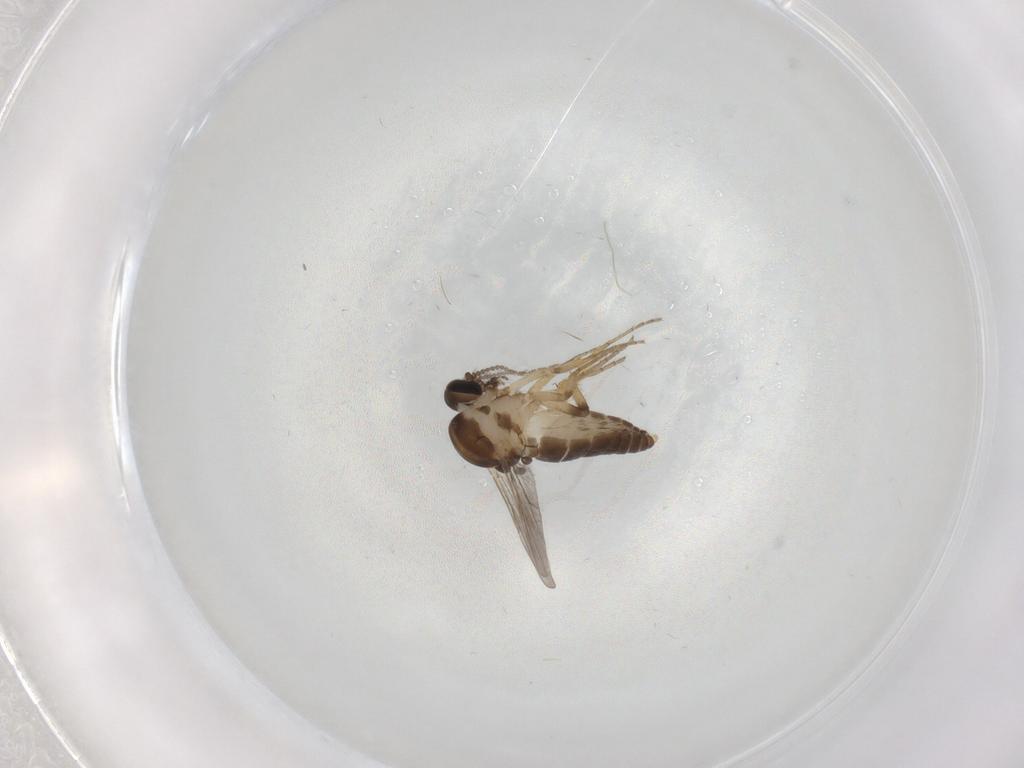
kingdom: Animalia
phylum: Arthropoda
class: Insecta
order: Diptera
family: Ceratopogonidae
